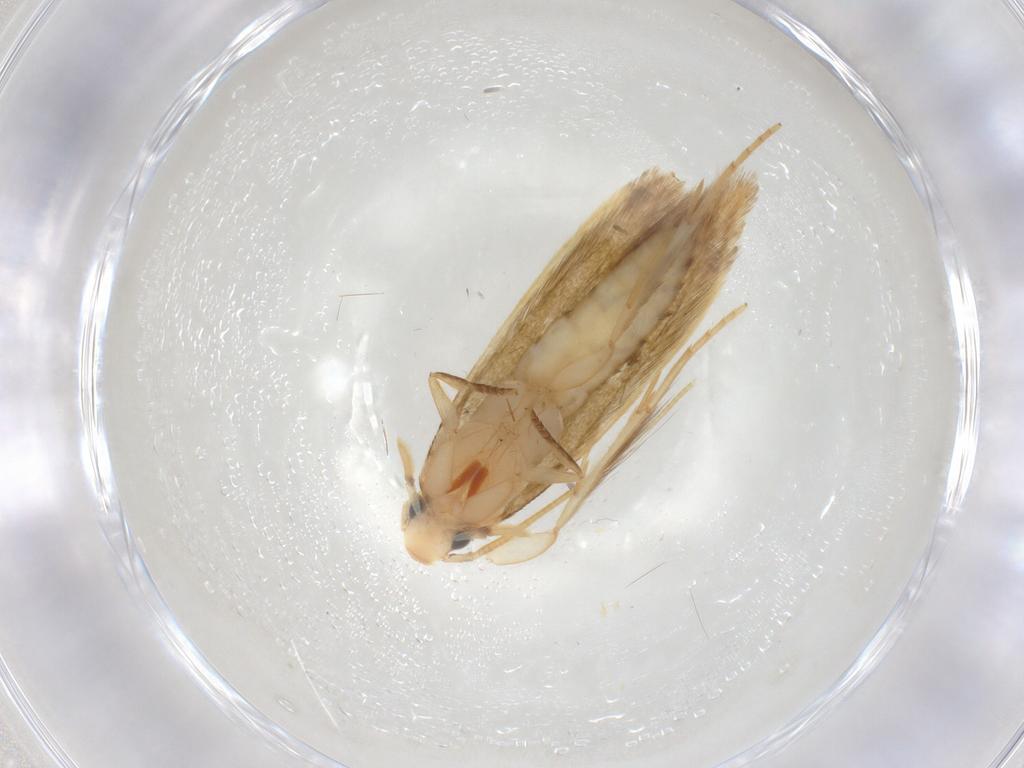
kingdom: Animalia
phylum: Arthropoda
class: Insecta
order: Lepidoptera
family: Tineidae
